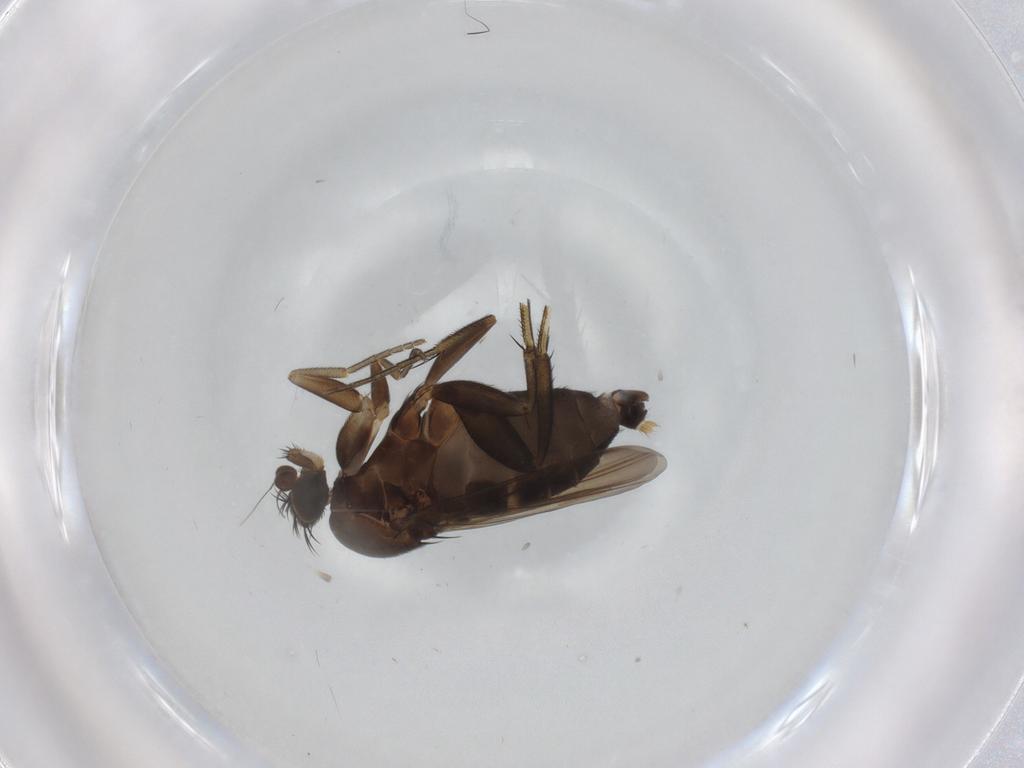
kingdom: Animalia
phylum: Arthropoda
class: Insecta
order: Diptera
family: Phoridae
